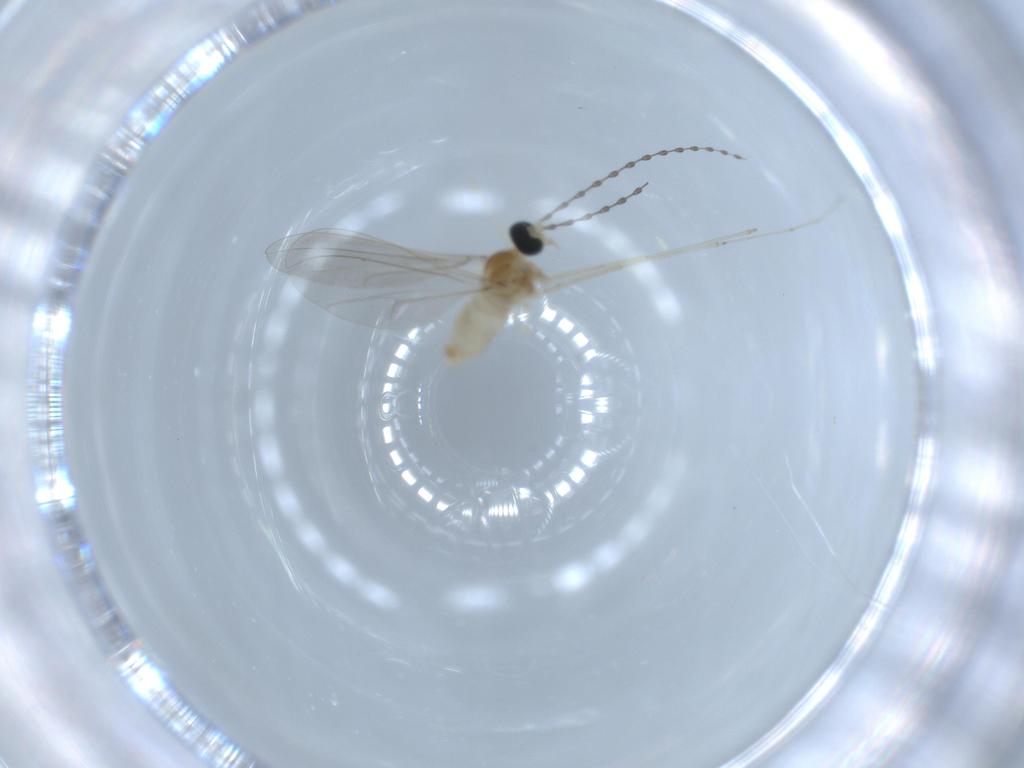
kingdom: Animalia
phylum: Arthropoda
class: Insecta
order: Diptera
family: Cecidomyiidae
